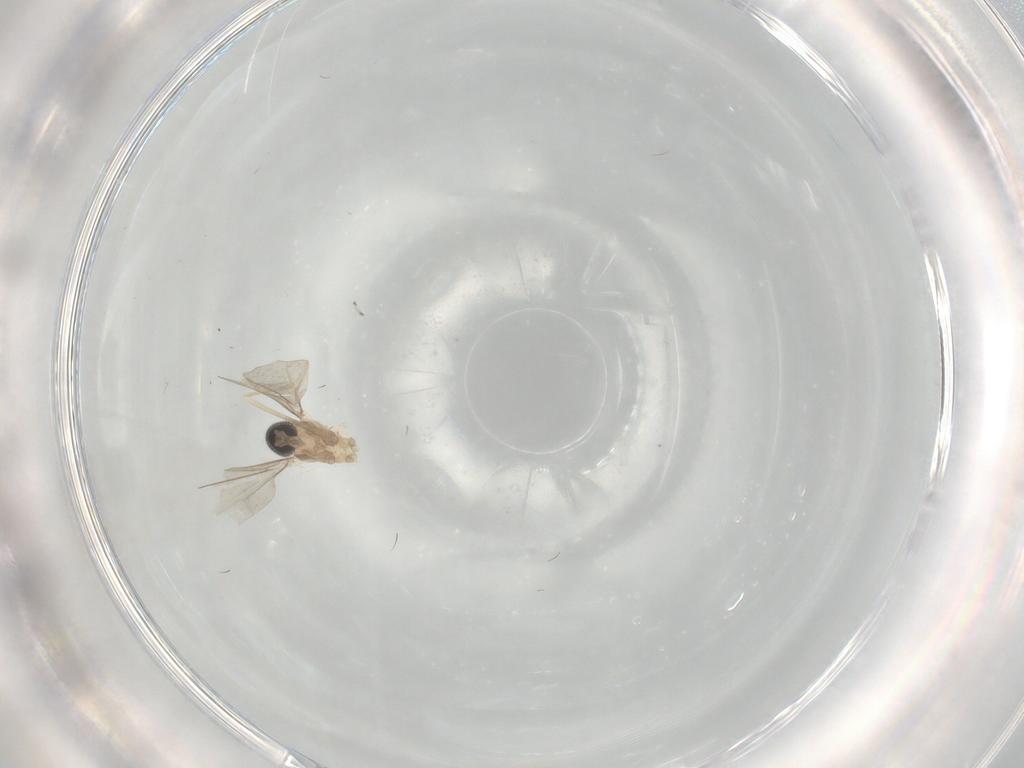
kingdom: Animalia
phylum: Arthropoda
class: Insecta
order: Diptera
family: Cecidomyiidae
